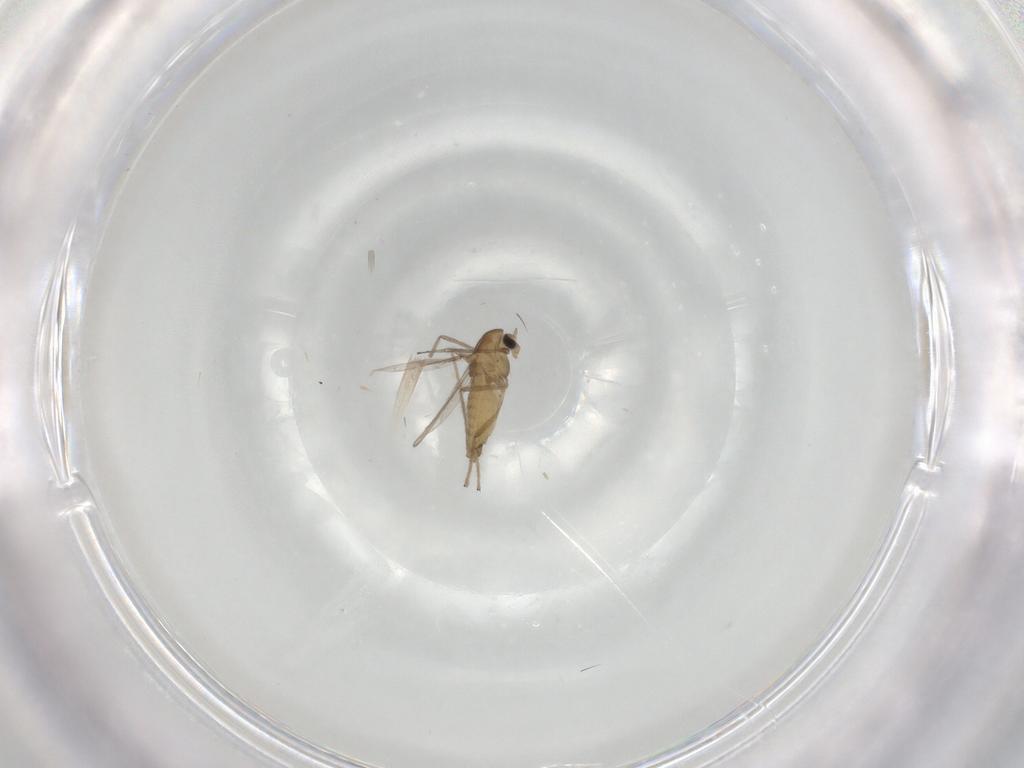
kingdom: Animalia
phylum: Arthropoda
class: Insecta
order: Diptera
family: Chironomidae
